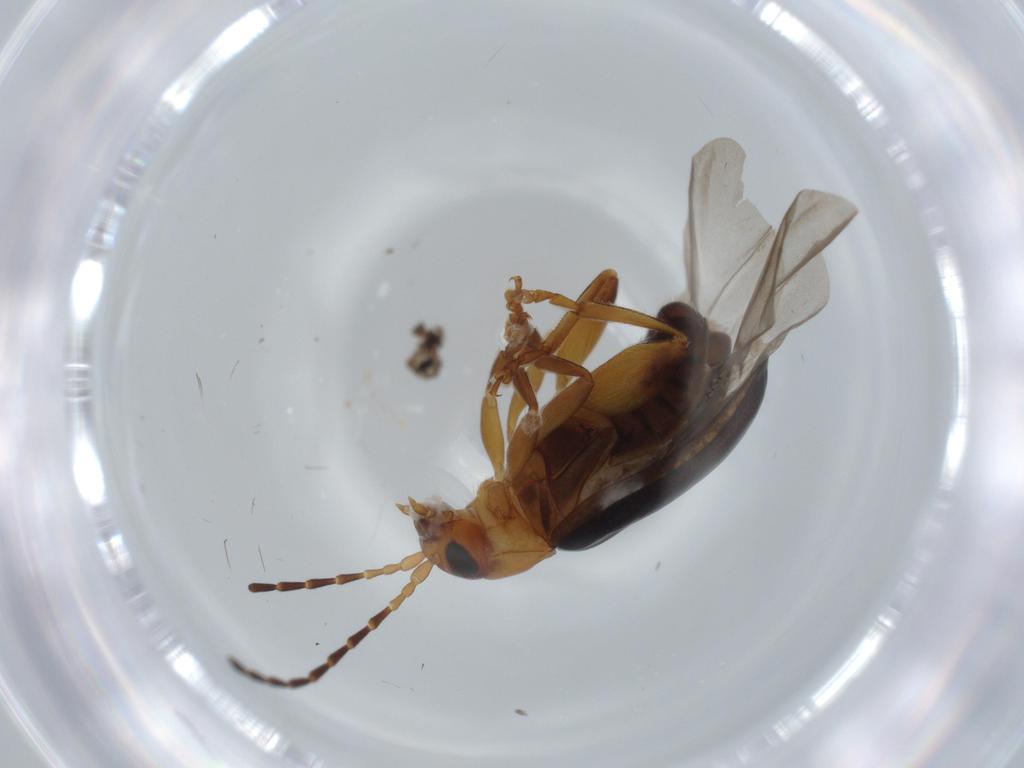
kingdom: Animalia
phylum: Arthropoda
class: Insecta
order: Coleoptera
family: Chrysomelidae
